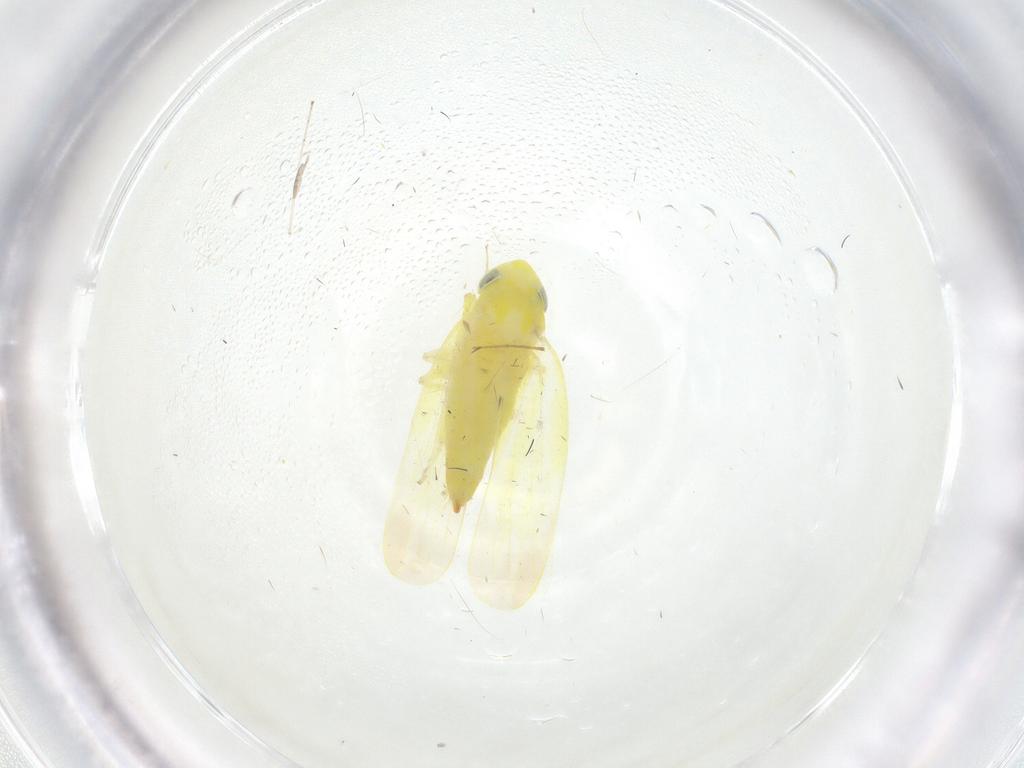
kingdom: Animalia
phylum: Arthropoda
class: Insecta
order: Hemiptera
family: Cicadellidae
